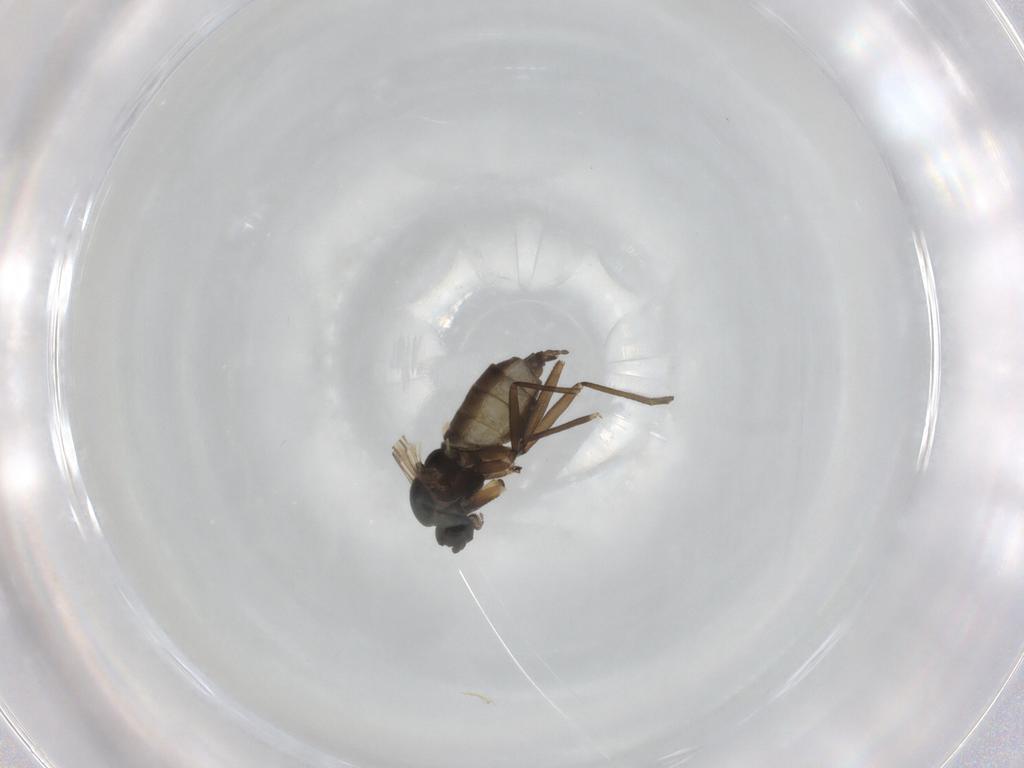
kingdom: Animalia
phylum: Arthropoda
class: Insecta
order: Diptera
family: Sciaridae
